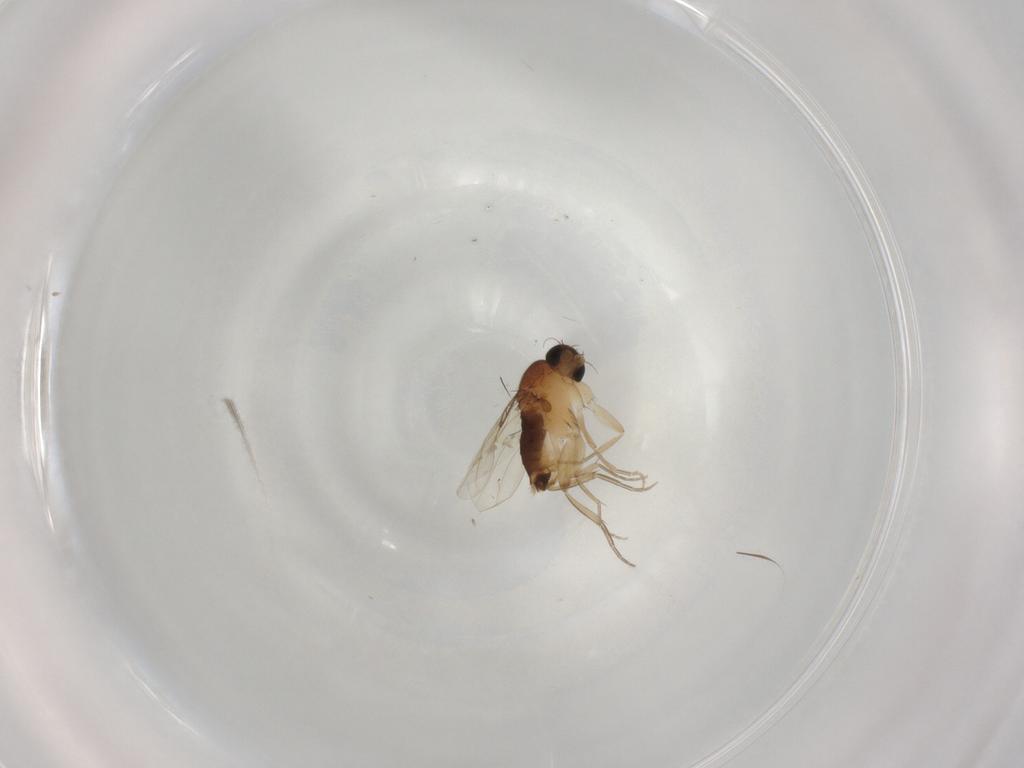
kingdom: Animalia
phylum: Arthropoda
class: Insecta
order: Diptera
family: Phoridae
